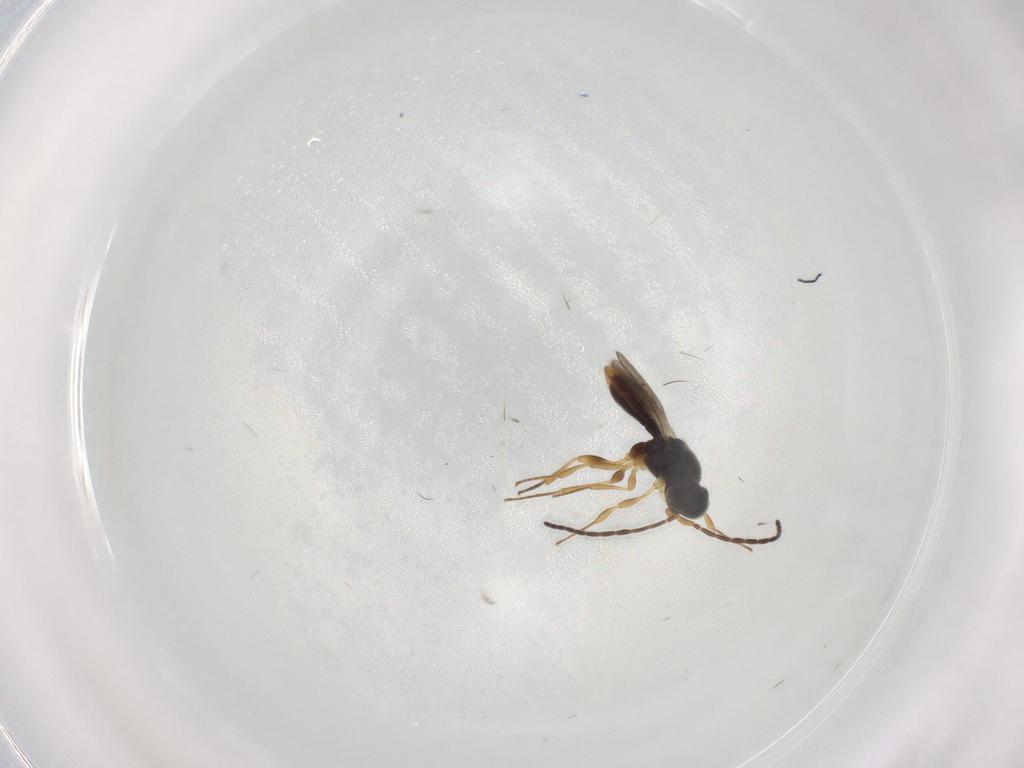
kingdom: Animalia
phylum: Arthropoda
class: Insecta
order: Hymenoptera
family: Scelionidae
